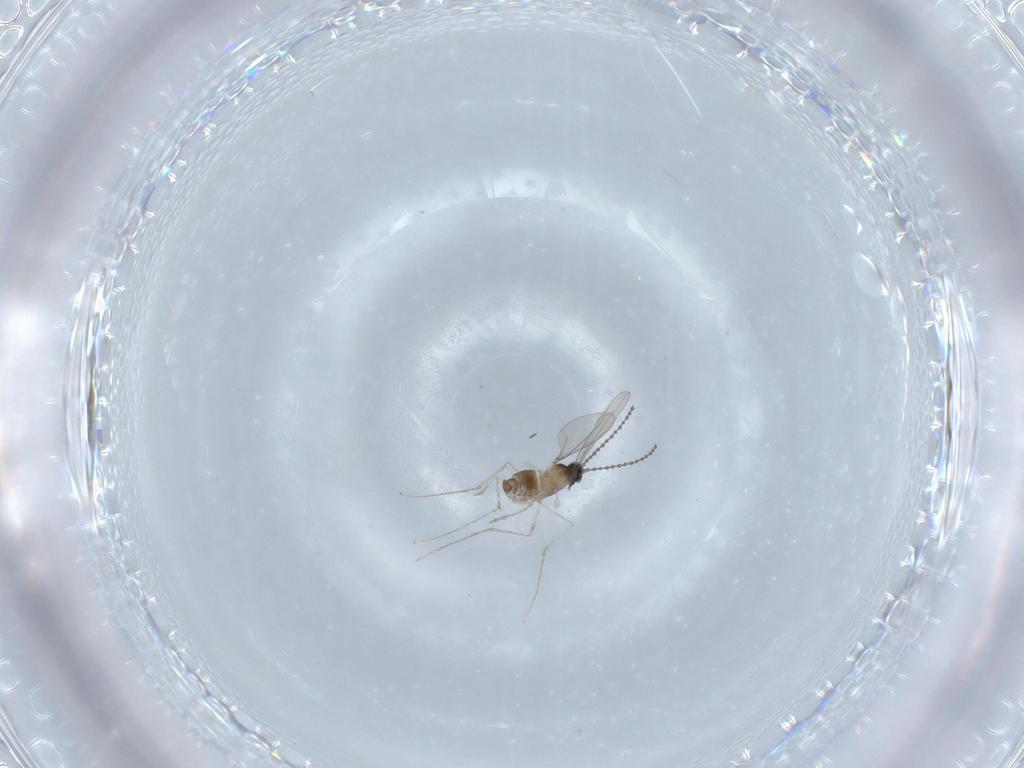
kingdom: Animalia
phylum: Arthropoda
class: Insecta
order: Diptera
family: Cecidomyiidae
